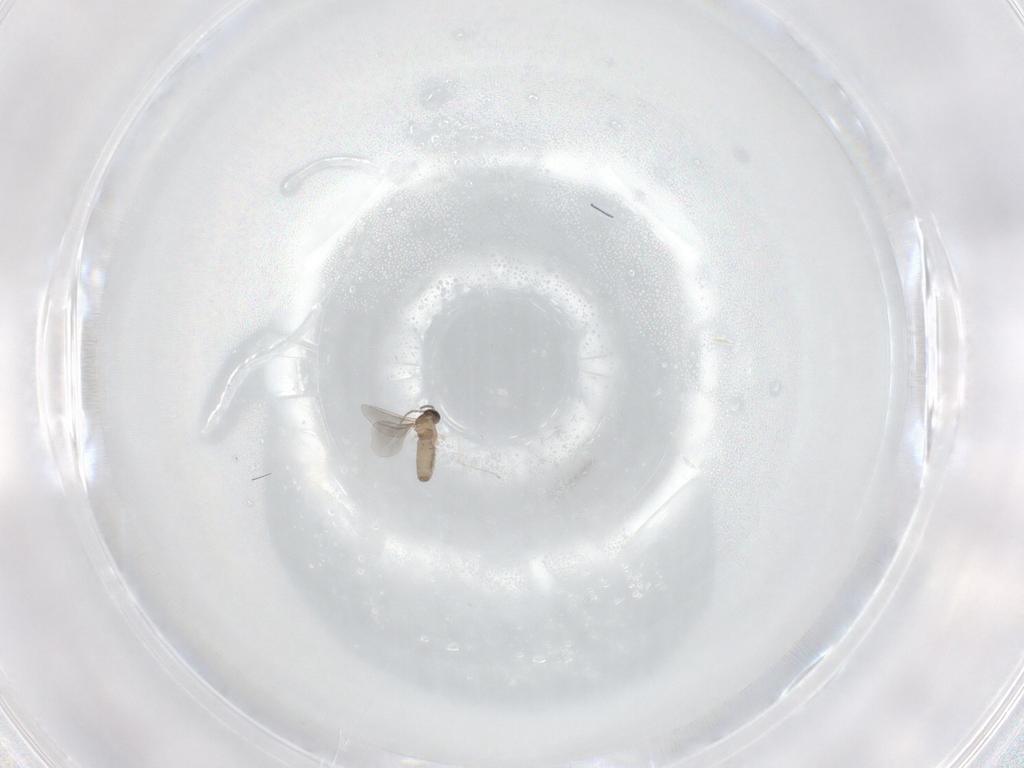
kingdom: Animalia
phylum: Arthropoda
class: Insecta
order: Diptera
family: Cecidomyiidae
